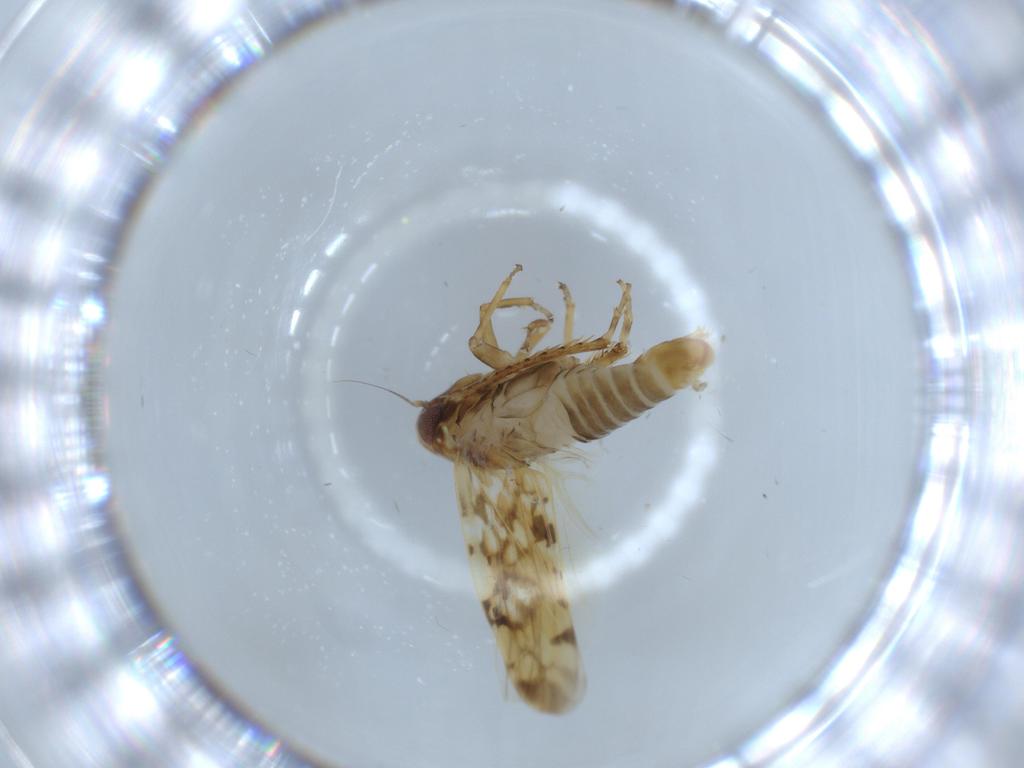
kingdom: Animalia
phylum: Arthropoda
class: Insecta
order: Hemiptera
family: Cicadellidae
